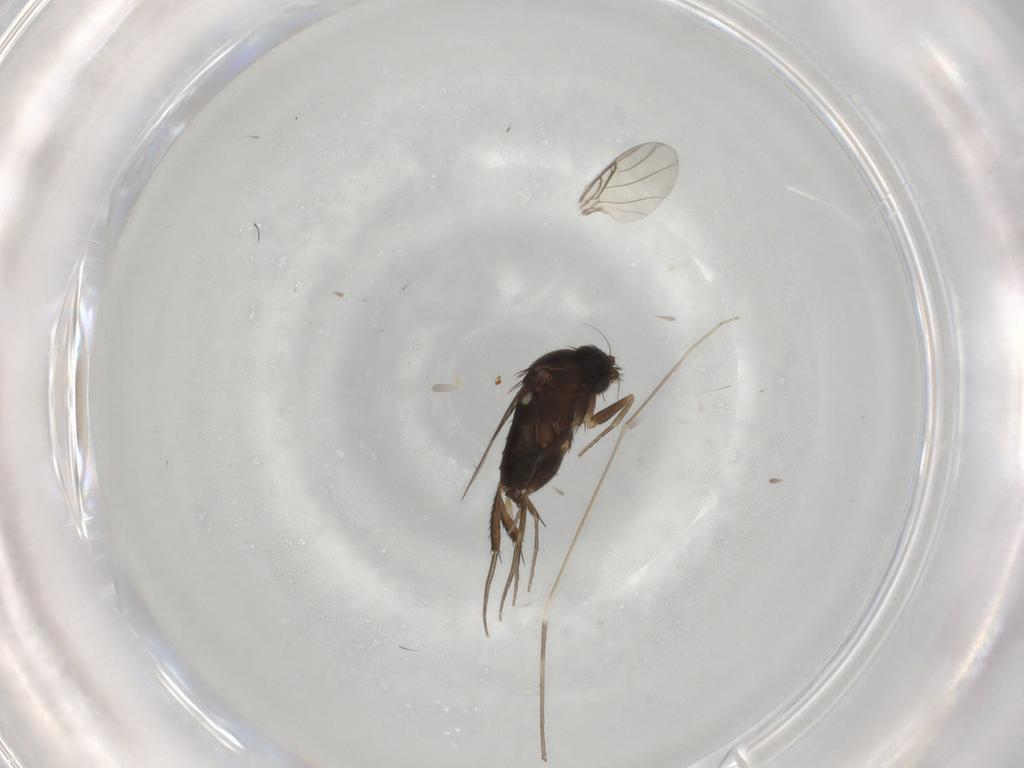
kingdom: Animalia
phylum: Arthropoda
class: Insecta
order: Diptera
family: Phoridae
